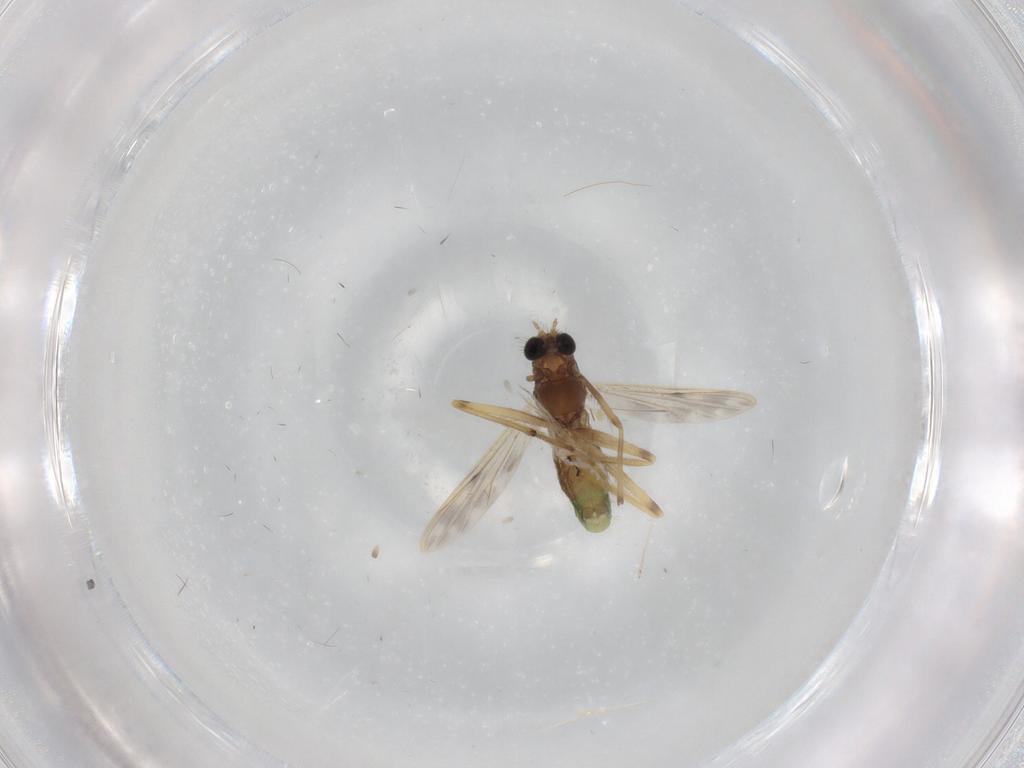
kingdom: Animalia
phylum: Arthropoda
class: Insecta
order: Diptera
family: Chironomidae
